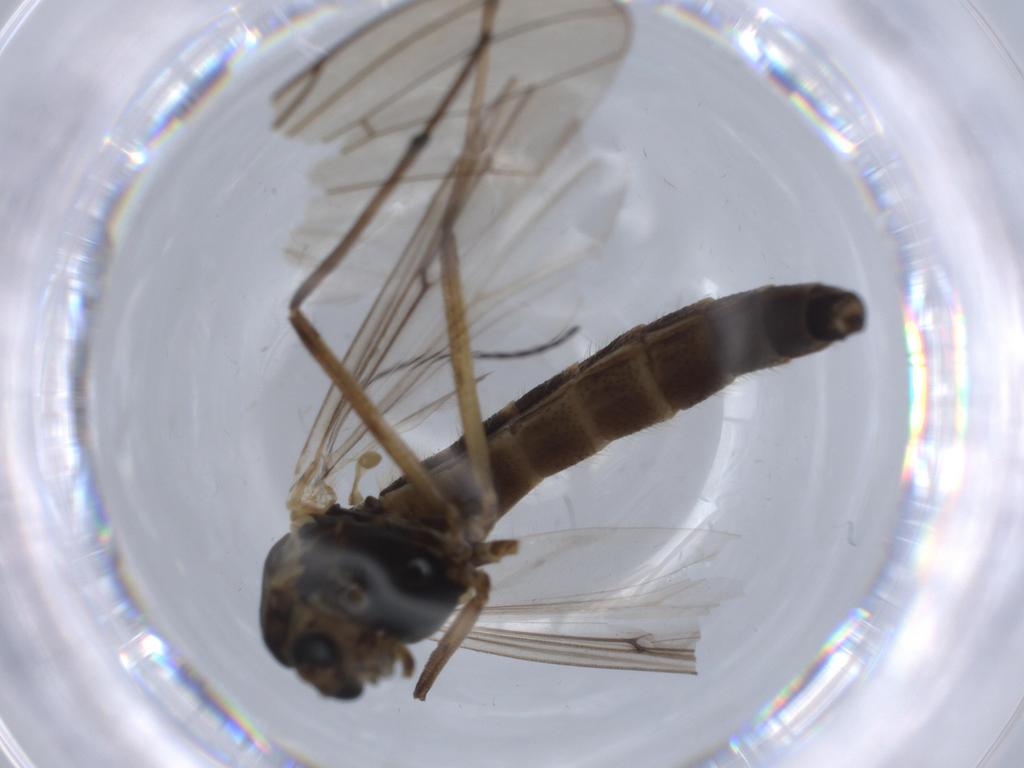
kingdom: Animalia
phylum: Arthropoda
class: Insecta
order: Diptera
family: Chironomidae
